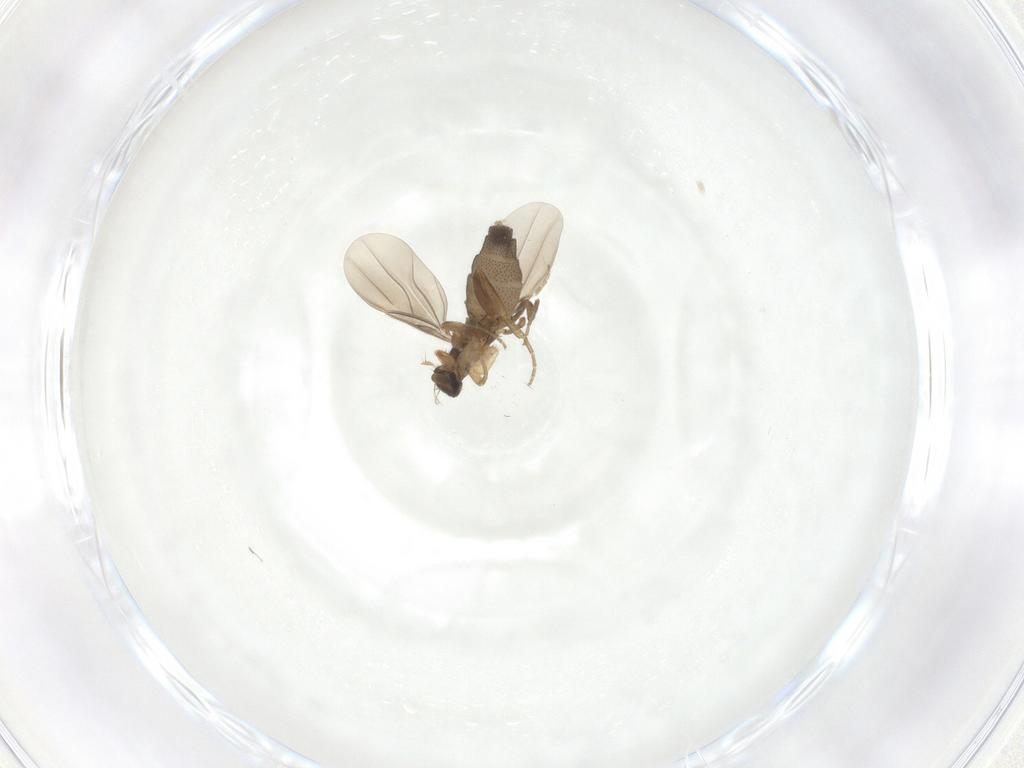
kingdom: Animalia
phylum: Arthropoda
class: Insecta
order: Diptera
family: Phoridae
